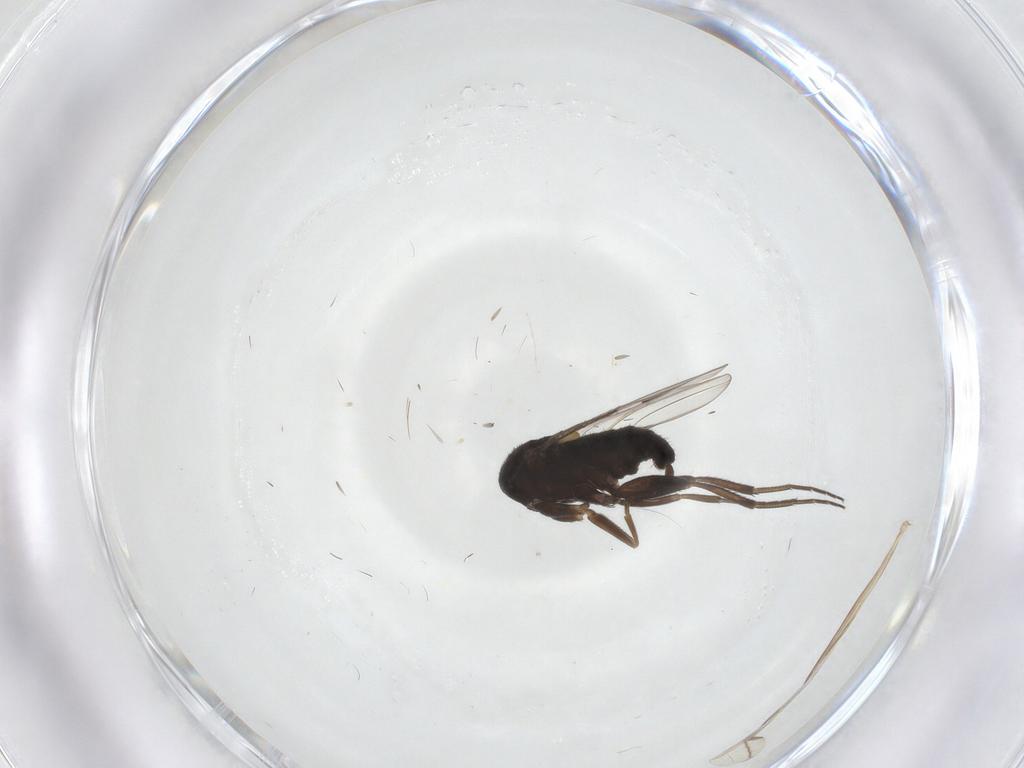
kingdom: Animalia
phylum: Arthropoda
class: Insecta
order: Diptera
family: Phoridae
